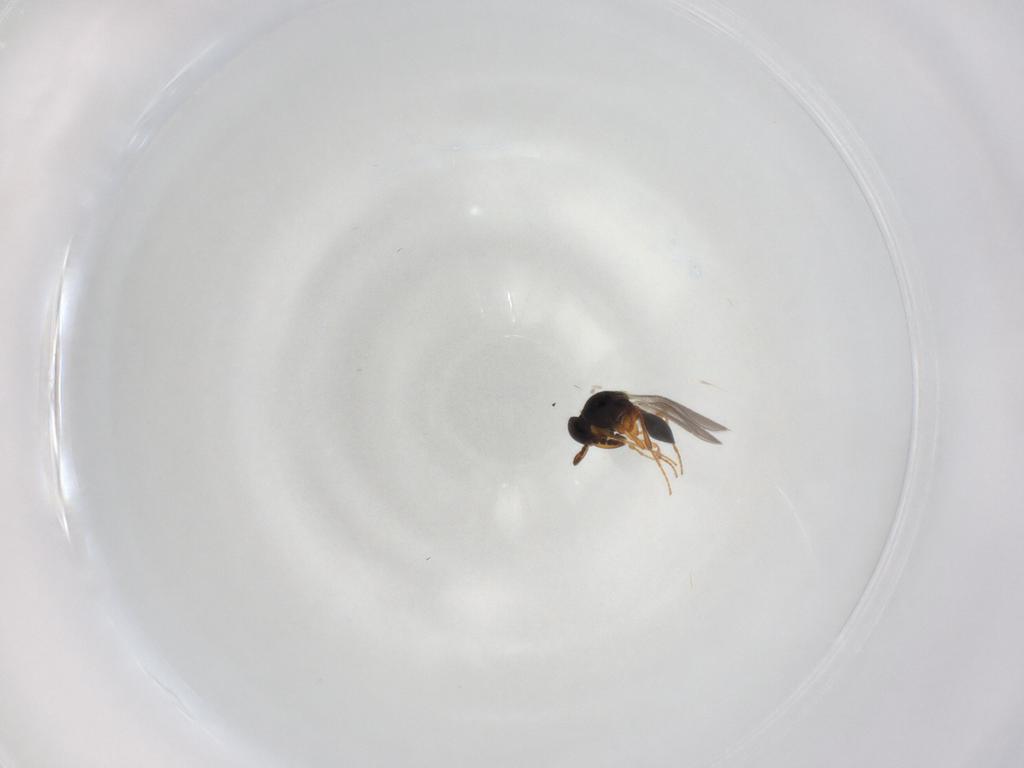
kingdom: Animalia
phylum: Arthropoda
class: Insecta
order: Hymenoptera
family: Platygastridae
